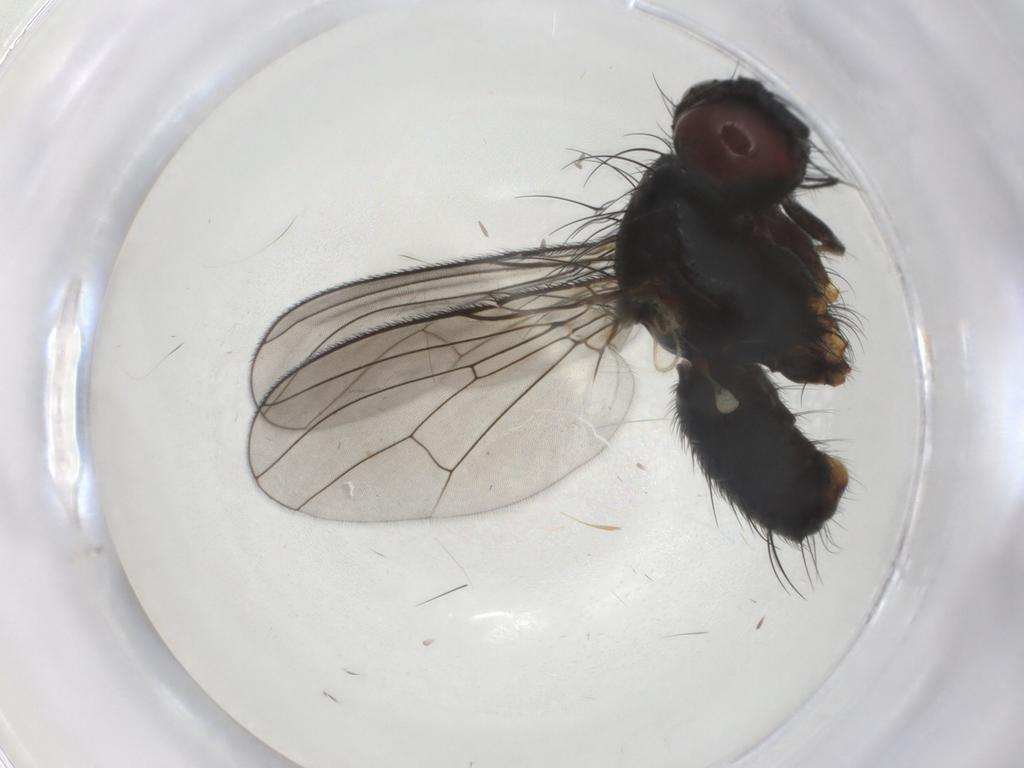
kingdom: Animalia
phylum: Arthropoda
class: Insecta
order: Diptera
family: Muscidae
